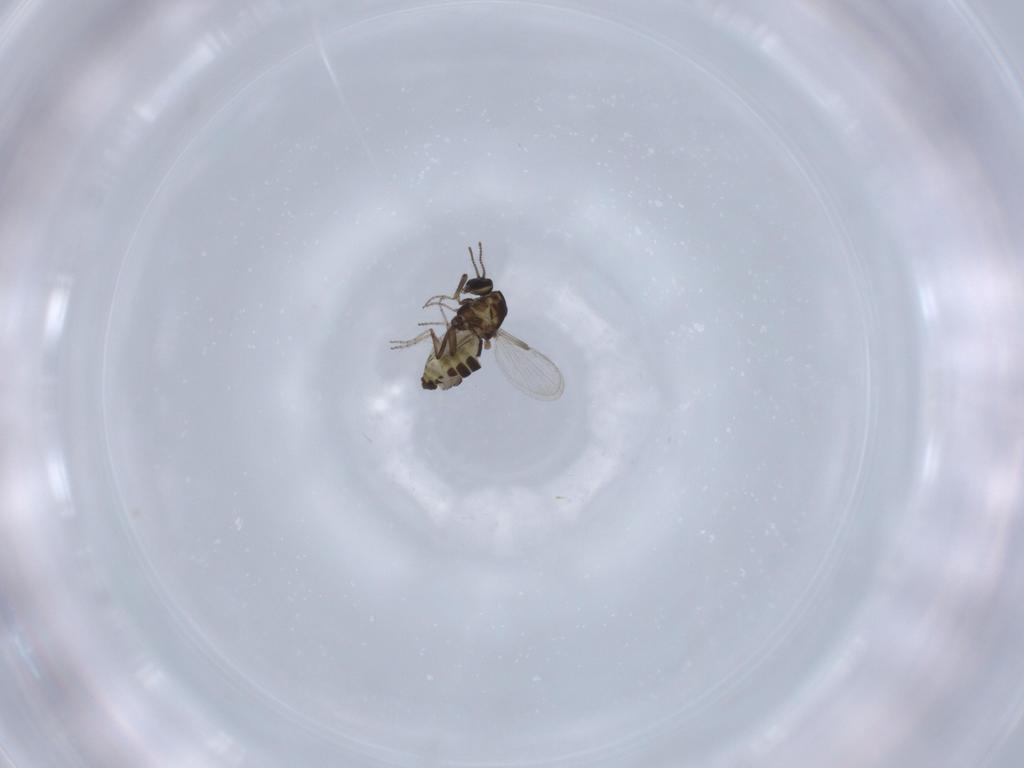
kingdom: Animalia
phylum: Arthropoda
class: Insecta
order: Diptera
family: Ceratopogonidae
